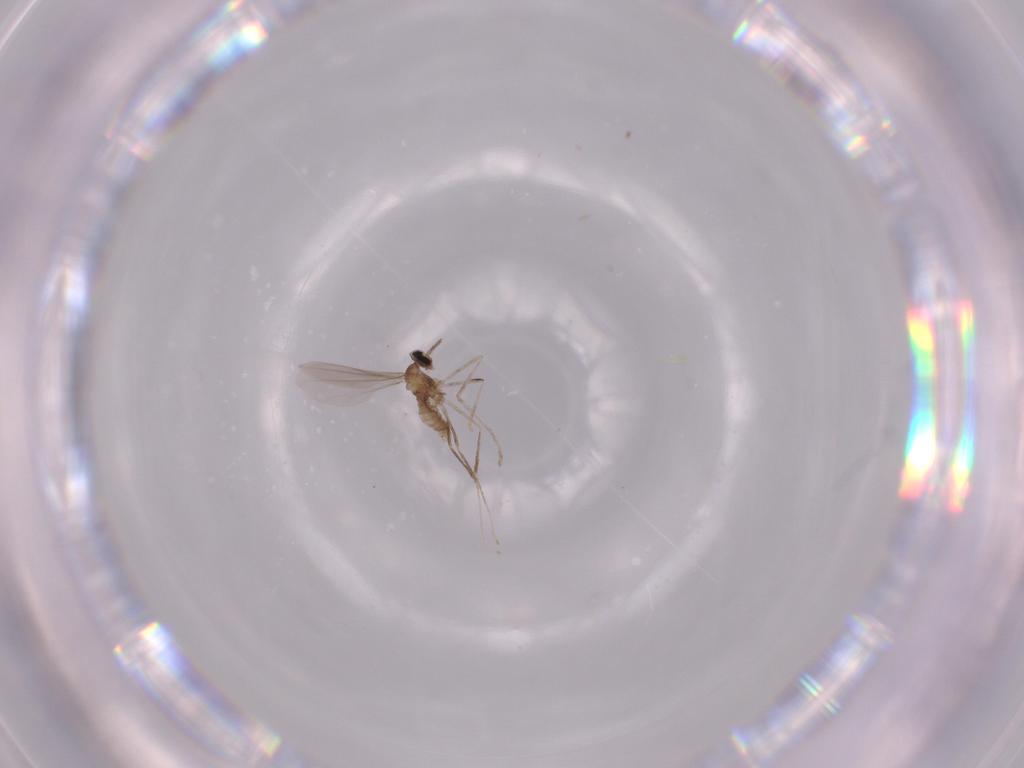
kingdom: Animalia
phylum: Arthropoda
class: Insecta
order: Diptera
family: Cecidomyiidae
